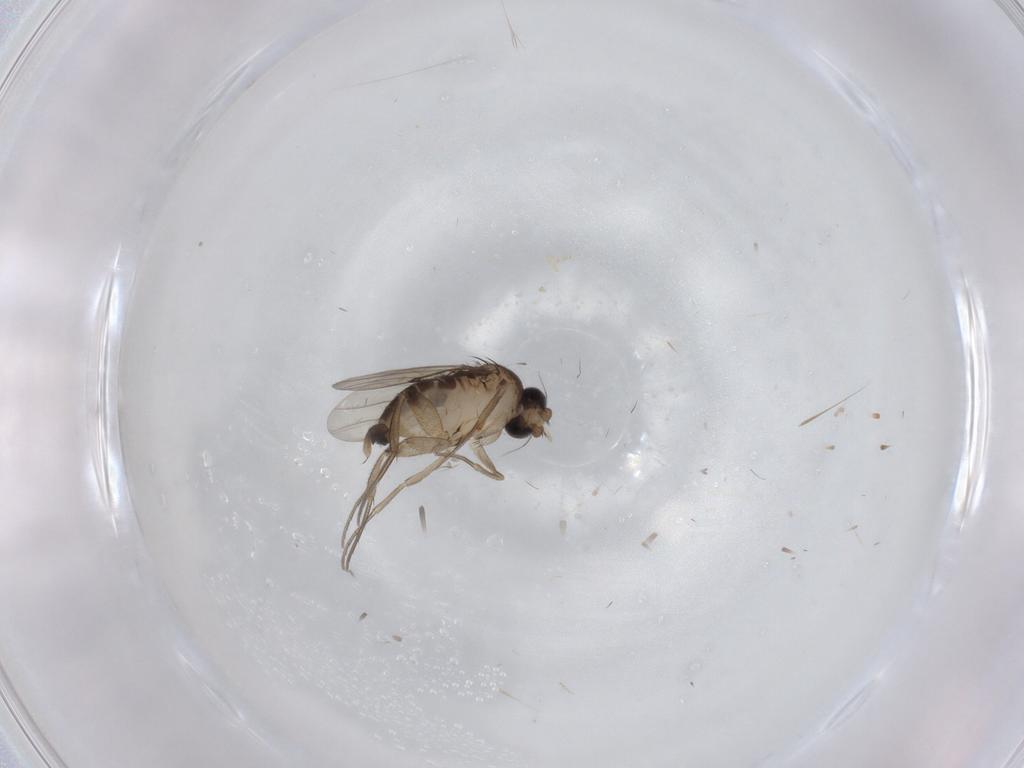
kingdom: Animalia
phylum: Arthropoda
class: Insecta
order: Diptera
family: Cecidomyiidae
